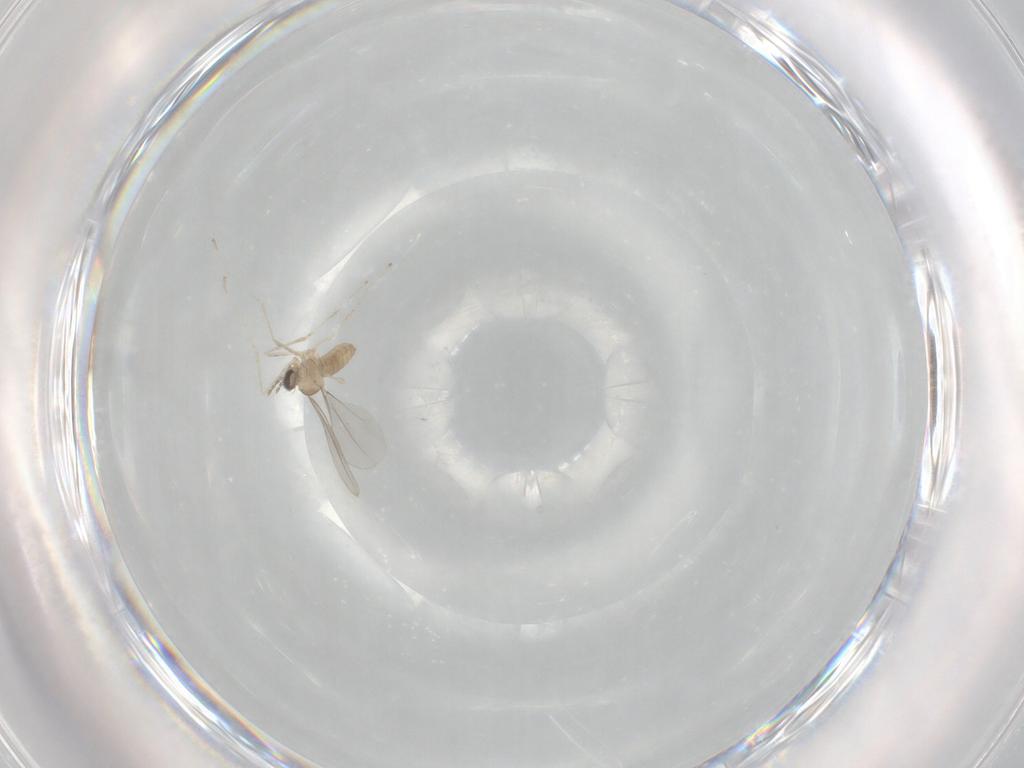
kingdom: Animalia
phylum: Arthropoda
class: Insecta
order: Diptera
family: Cecidomyiidae
